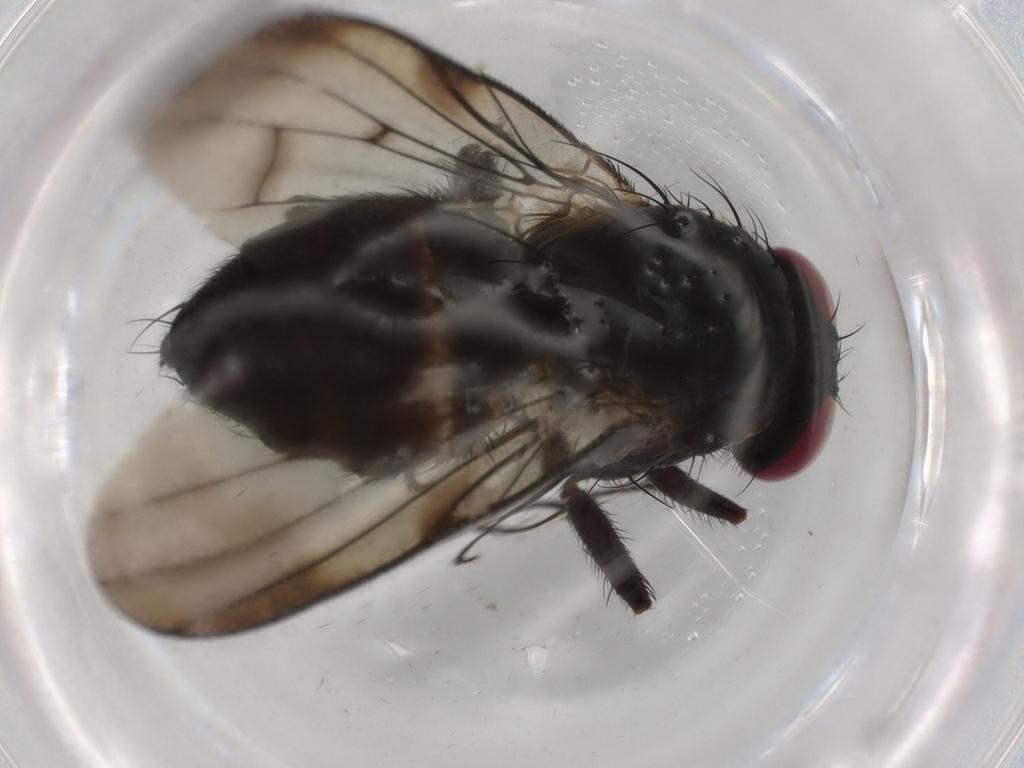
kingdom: Animalia
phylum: Arthropoda
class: Insecta
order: Diptera
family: Fannia
